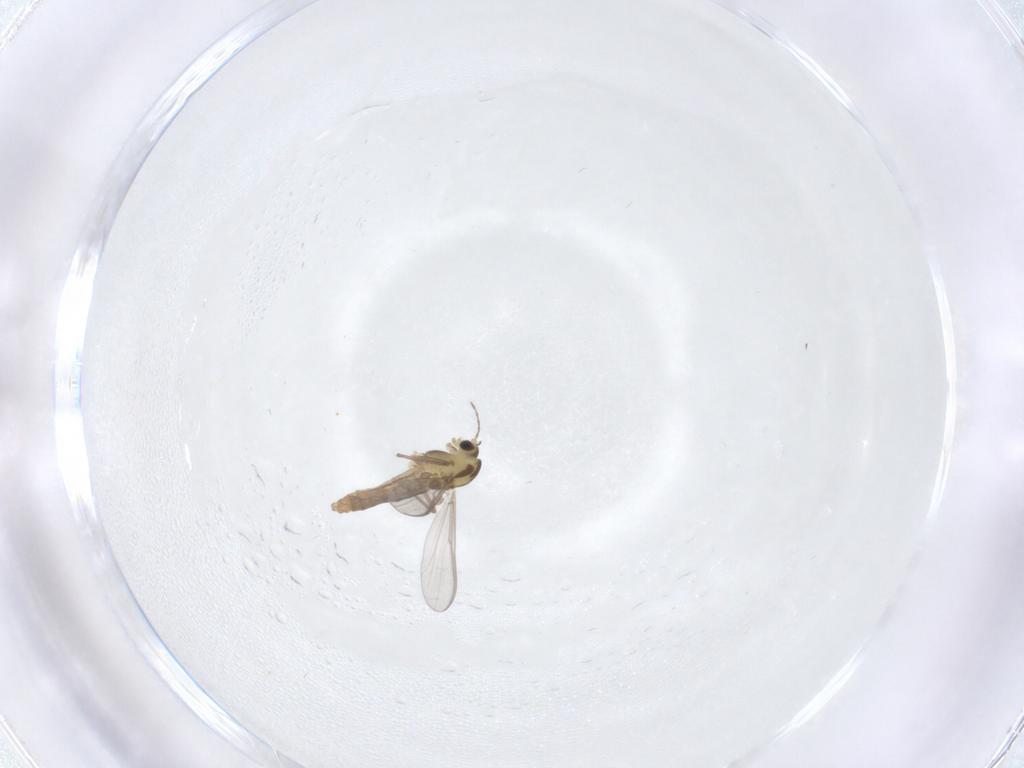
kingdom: Animalia
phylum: Arthropoda
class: Insecta
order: Diptera
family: Chironomidae
